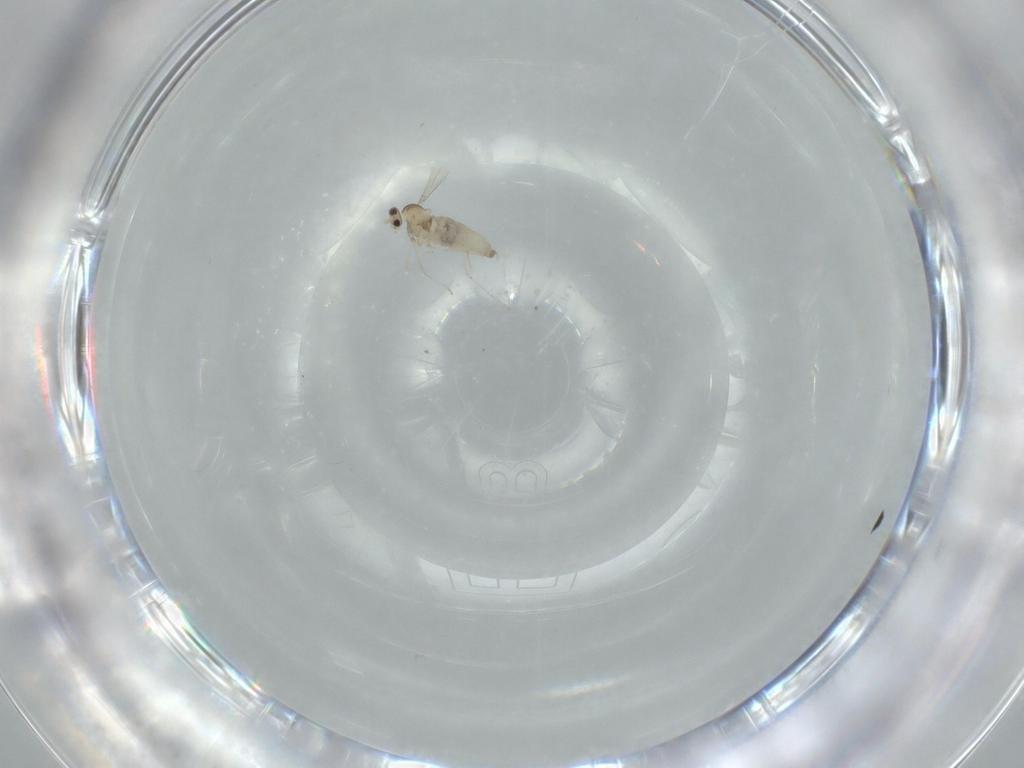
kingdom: Animalia
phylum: Arthropoda
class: Insecta
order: Diptera
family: Cecidomyiidae
